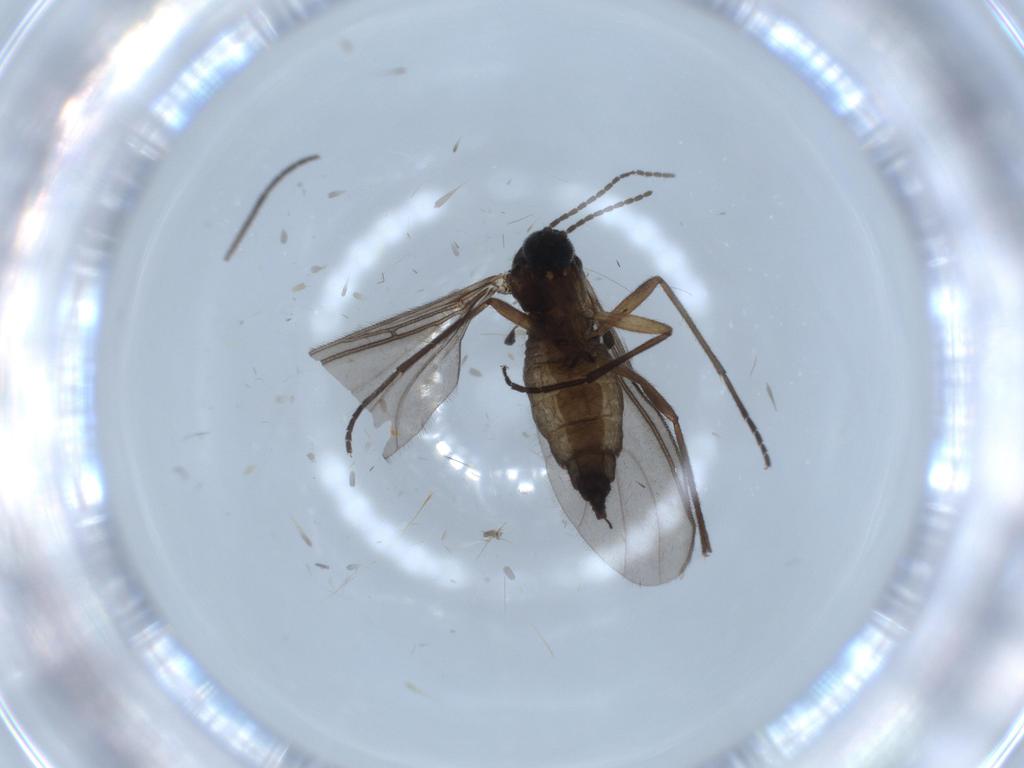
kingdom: Animalia
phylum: Arthropoda
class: Insecta
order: Diptera
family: Sciaridae
